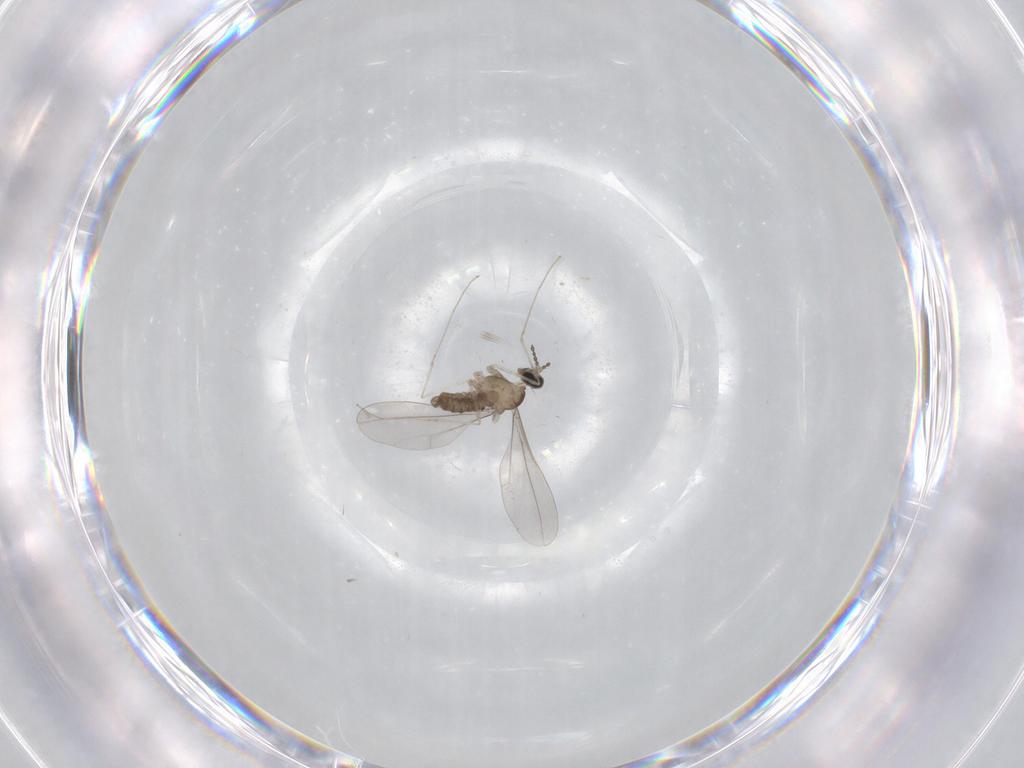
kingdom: Animalia
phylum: Arthropoda
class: Insecta
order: Diptera
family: Cecidomyiidae
